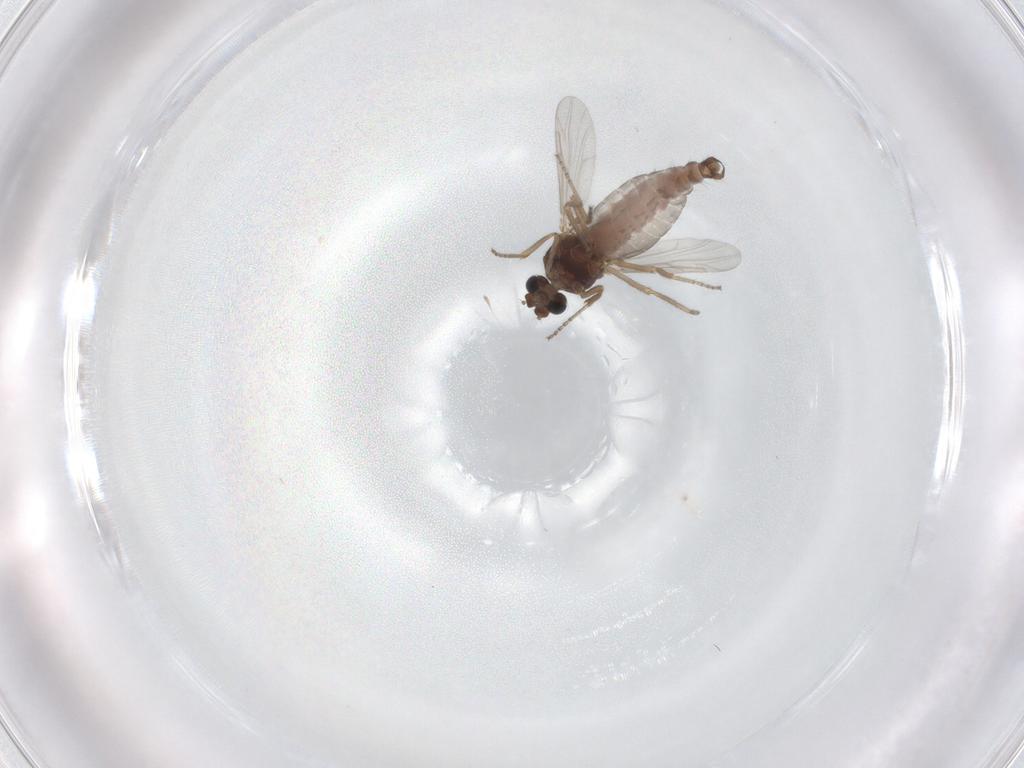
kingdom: Animalia
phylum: Arthropoda
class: Insecta
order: Diptera
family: Ceratopogonidae
